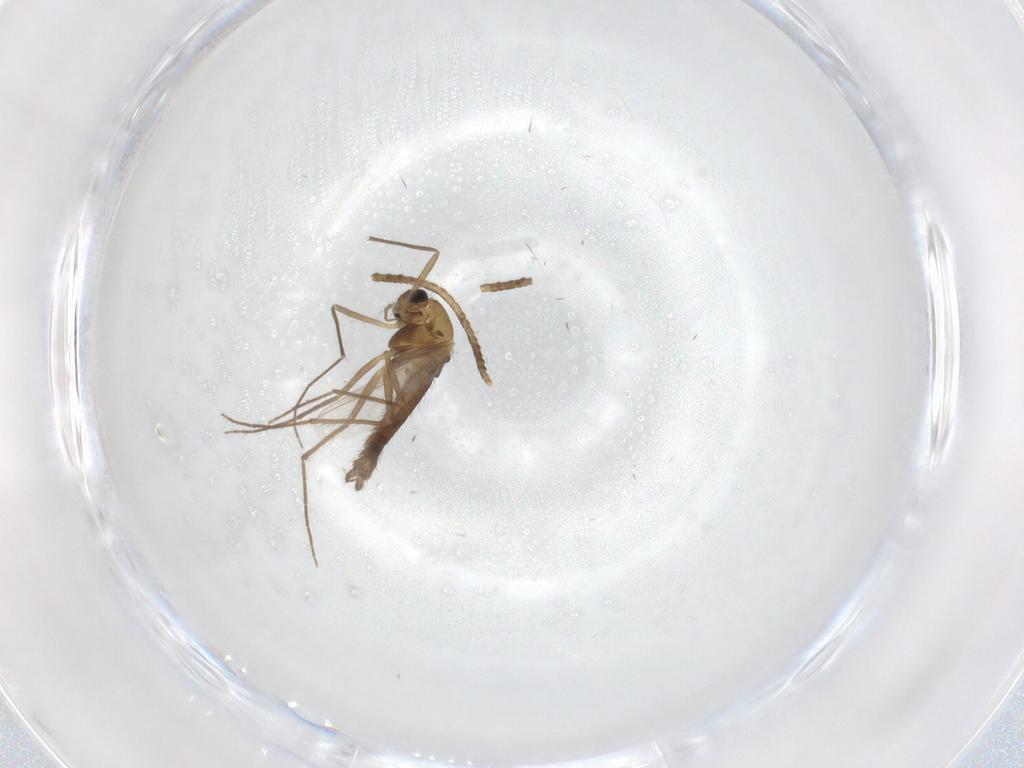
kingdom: Animalia
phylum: Arthropoda
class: Insecta
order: Diptera
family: Chironomidae
